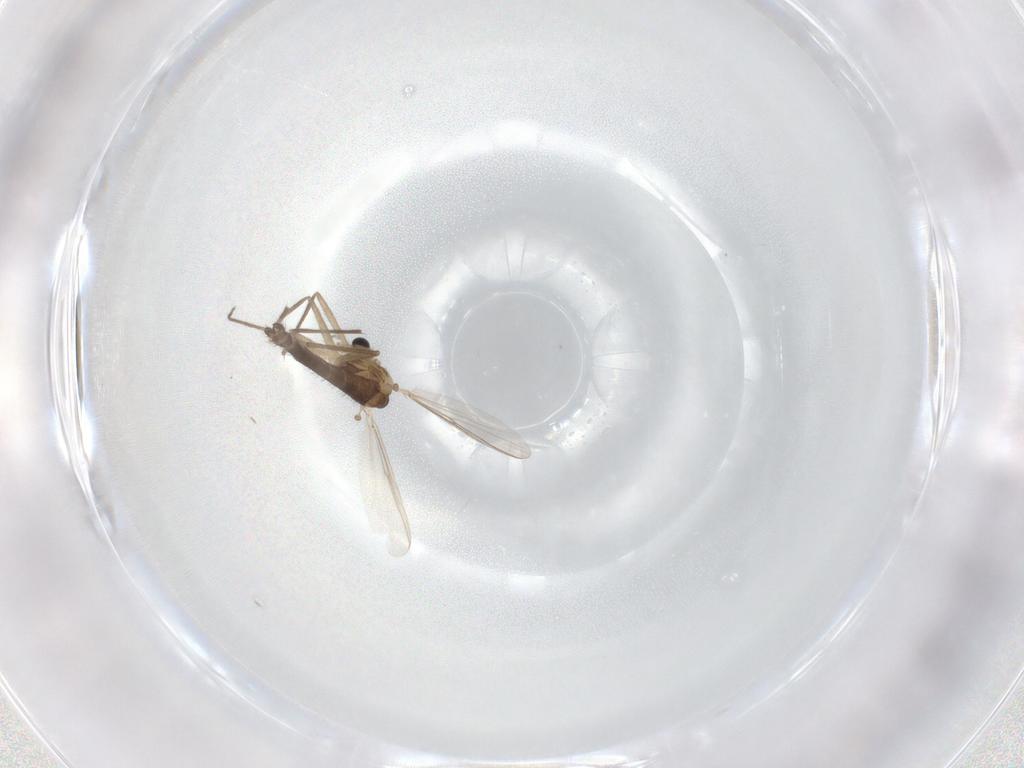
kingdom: Animalia
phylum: Arthropoda
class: Insecta
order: Diptera
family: Chironomidae
